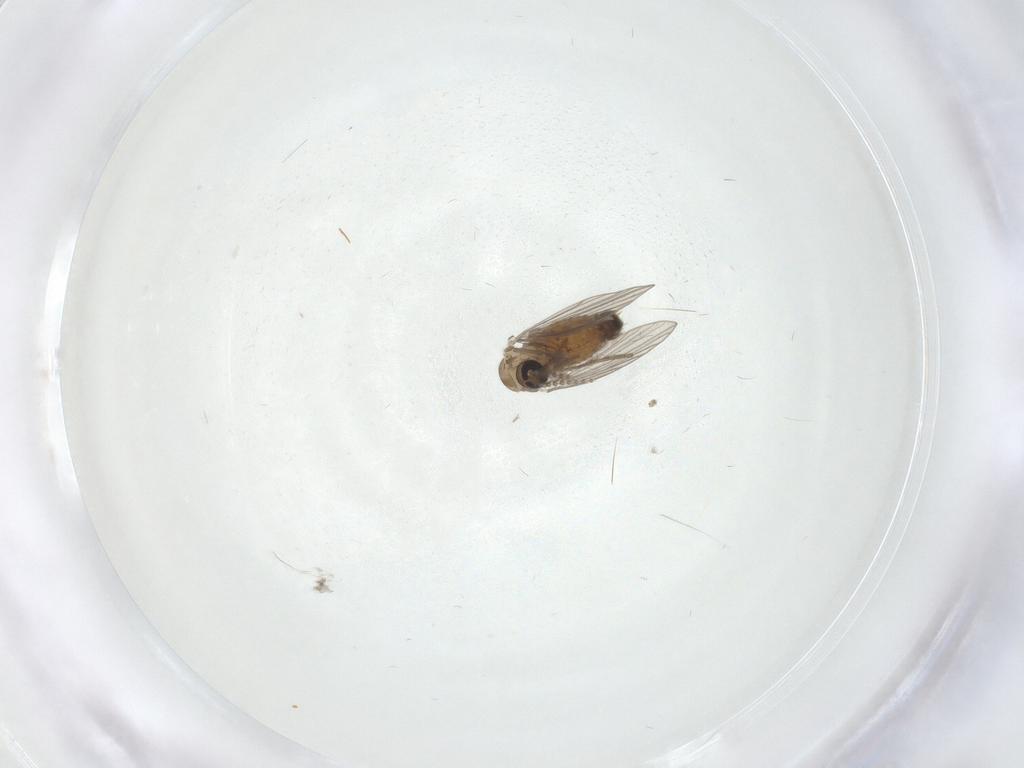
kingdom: Animalia
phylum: Arthropoda
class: Insecta
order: Diptera
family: Psychodidae
